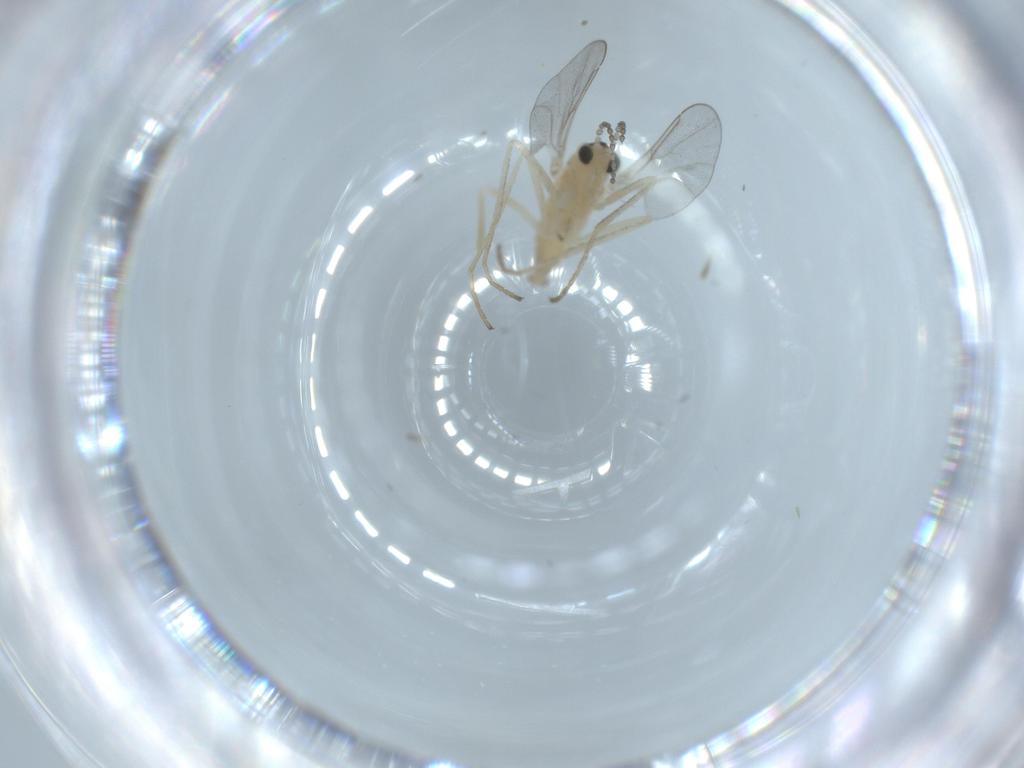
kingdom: Animalia
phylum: Arthropoda
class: Insecta
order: Diptera
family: Cecidomyiidae
